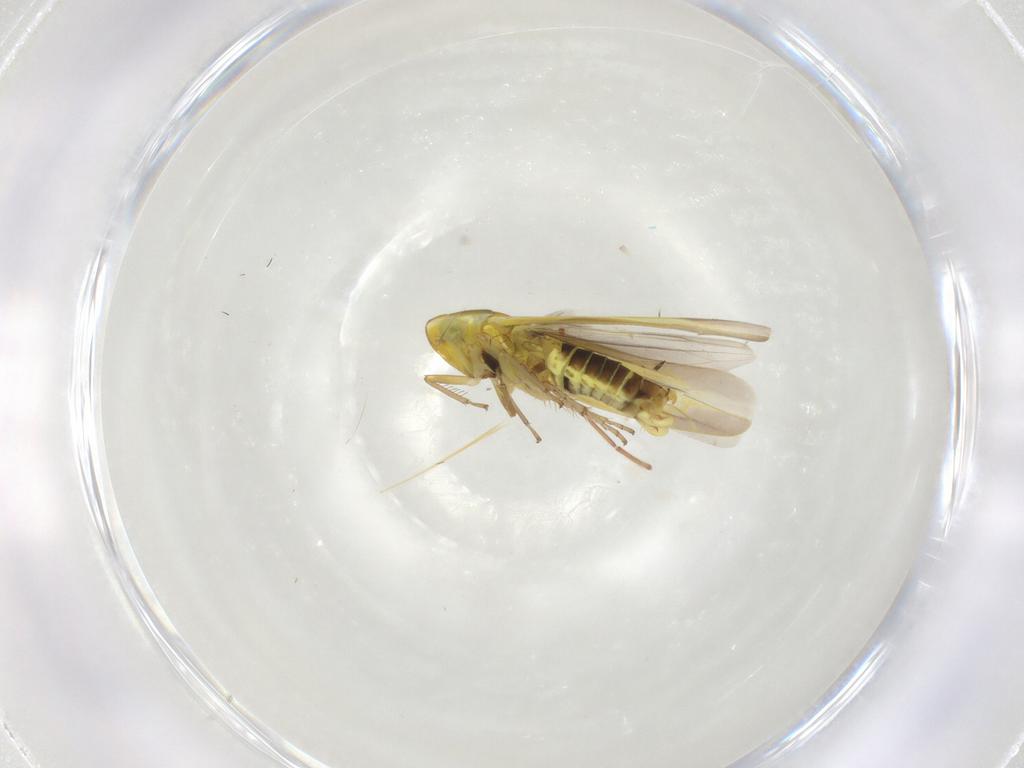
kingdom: Animalia
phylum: Arthropoda
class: Insecta
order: Hemiptera
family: Cicadellidae
